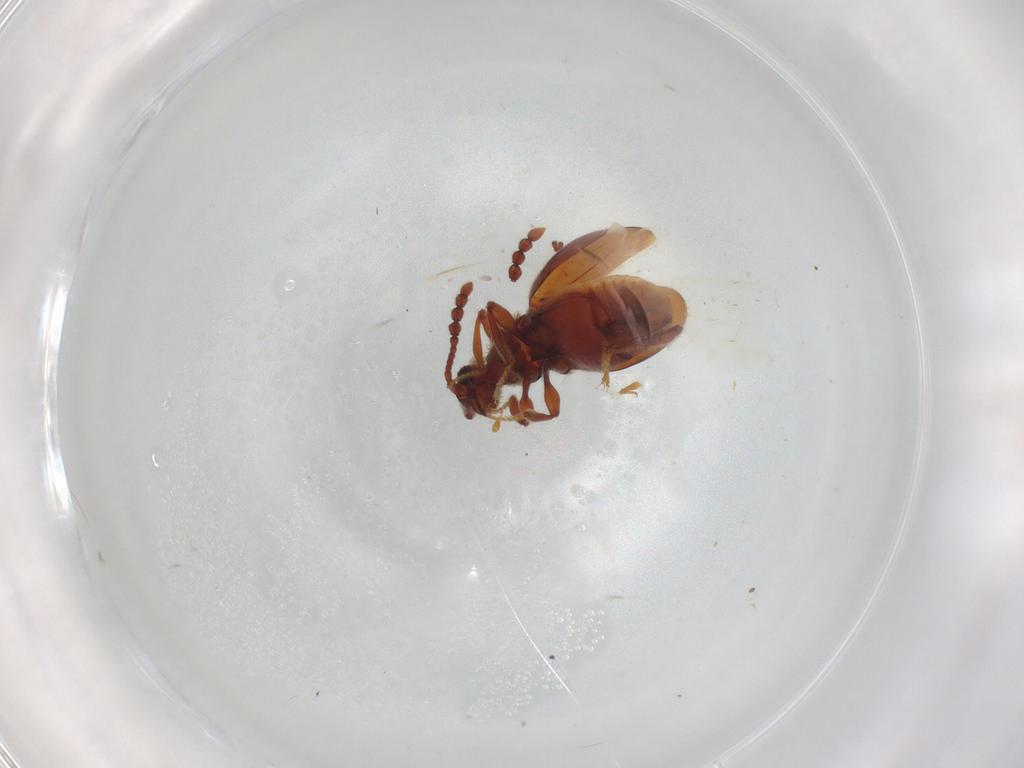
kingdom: Animalia
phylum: Arthropoda
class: Insecta
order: Coleoptera
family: Staphylinidae
